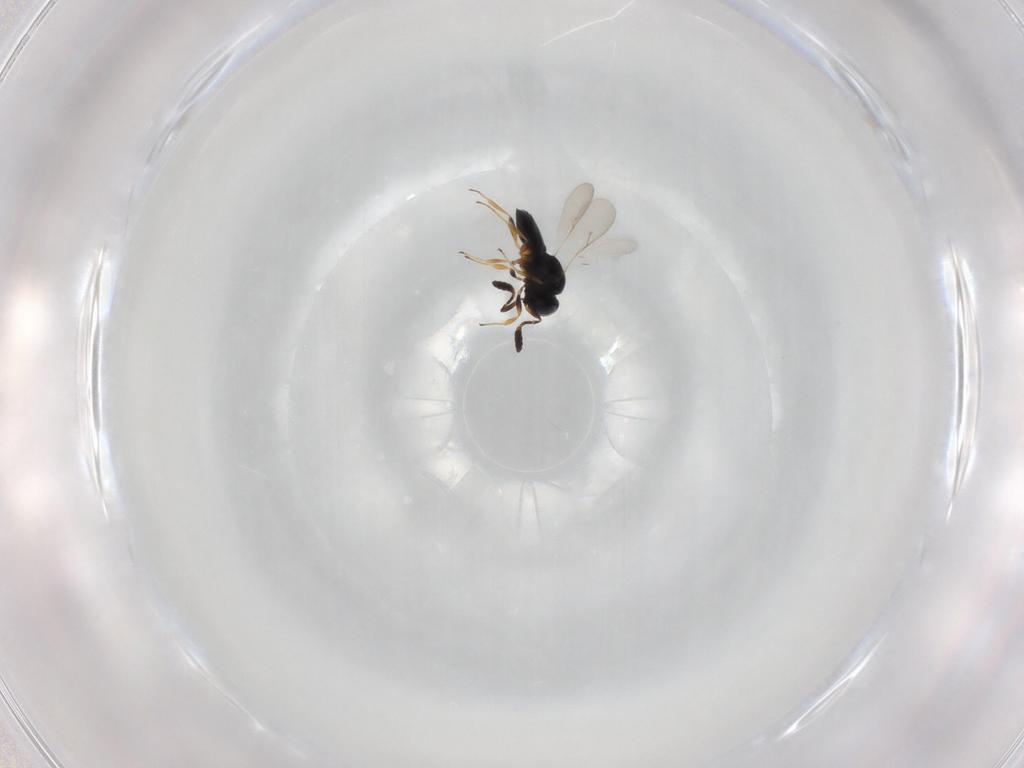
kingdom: Animalia
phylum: Arthropoda
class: Insecta
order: Hymenoptera
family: Scelionidae
